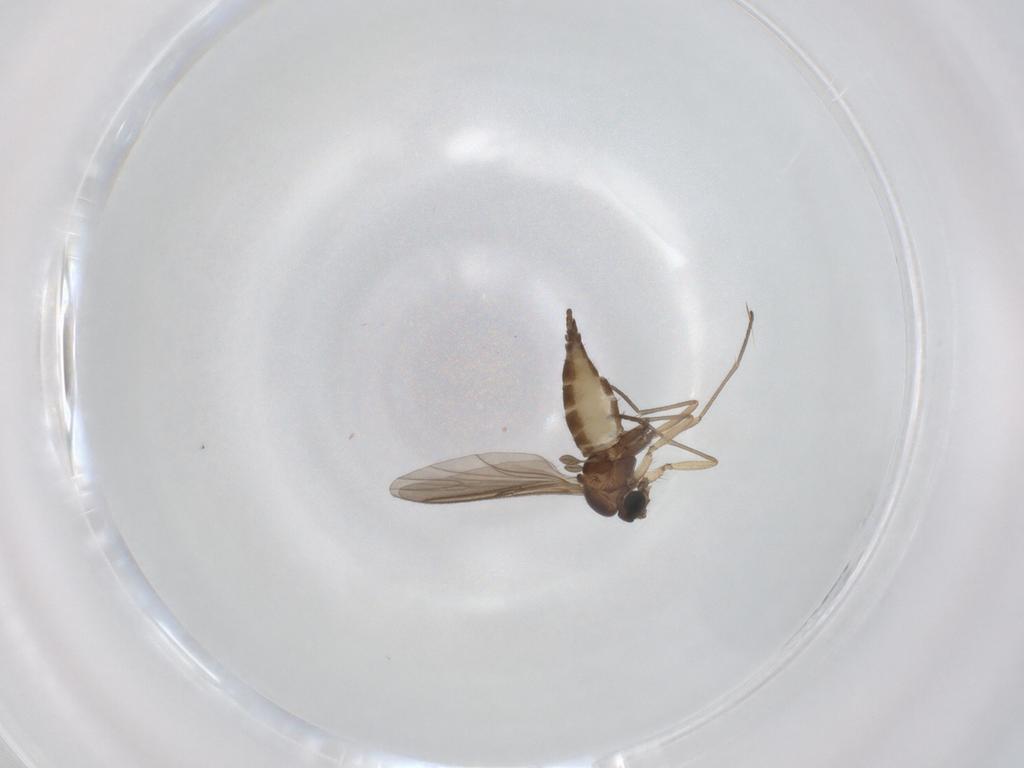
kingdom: Animalia
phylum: Arthropoda
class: Insecta
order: Diptera
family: Sciaridae
